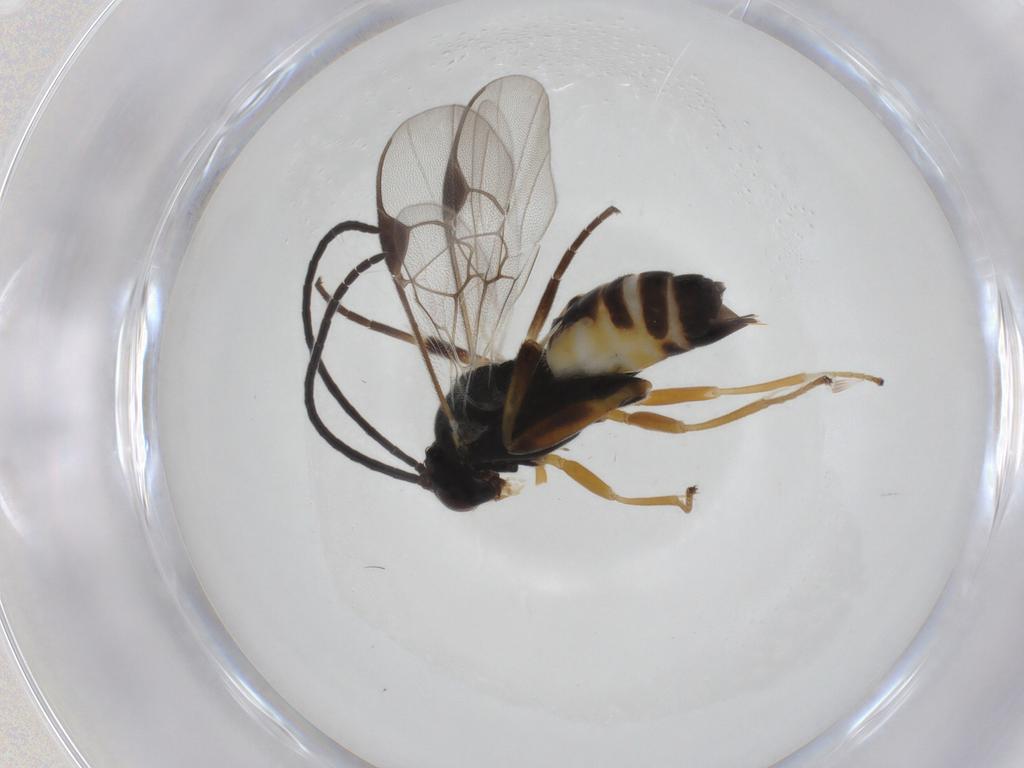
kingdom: Animalia
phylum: Arthropoda
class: Insecta
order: Hymenoptera
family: Braconidae
